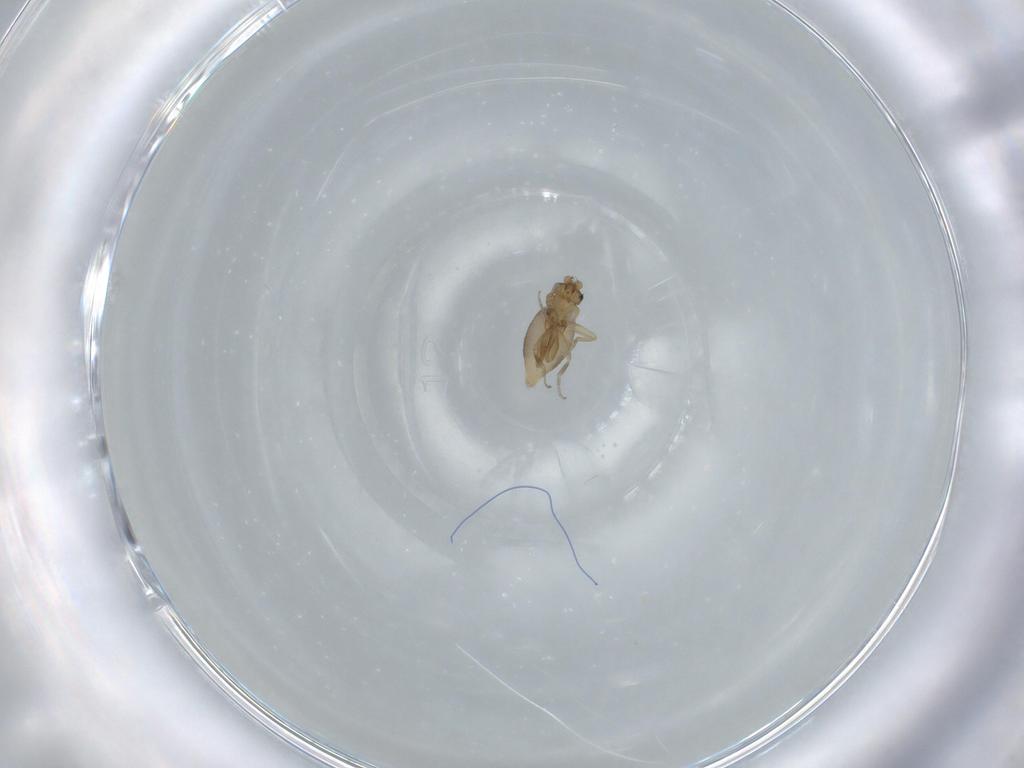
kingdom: Animalia
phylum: Arthropoda
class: Insecta
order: Diptera
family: Phoridae
